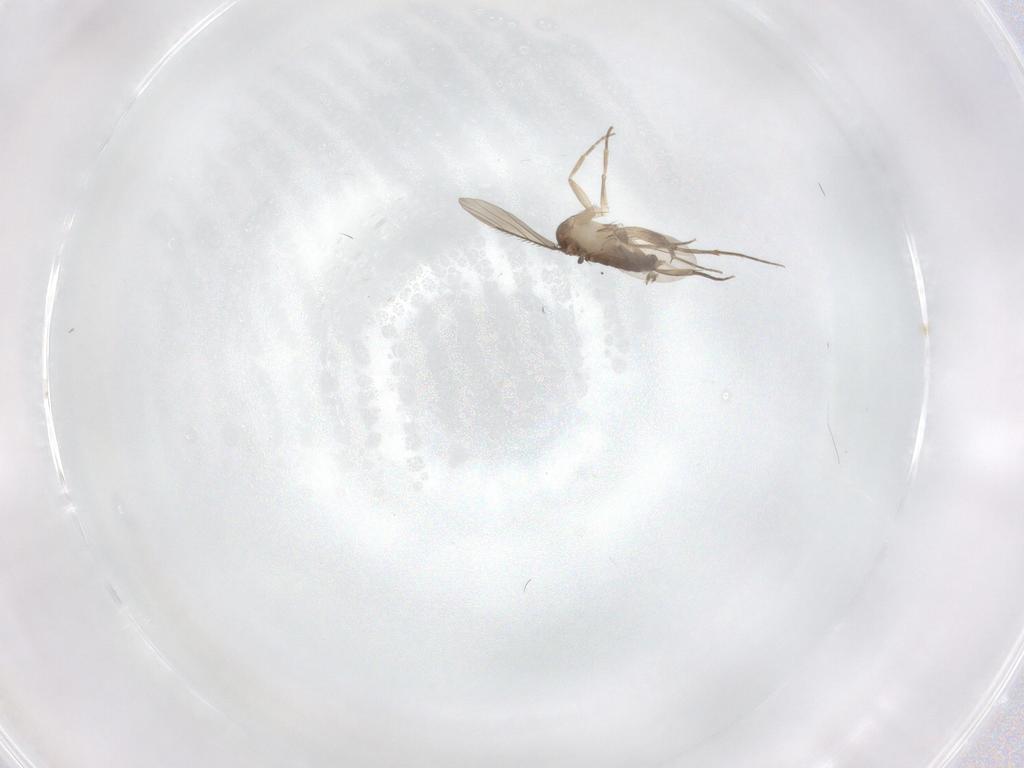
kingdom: Animalia
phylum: Arthropoda
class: Insecta
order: Diptera
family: Phoridae
